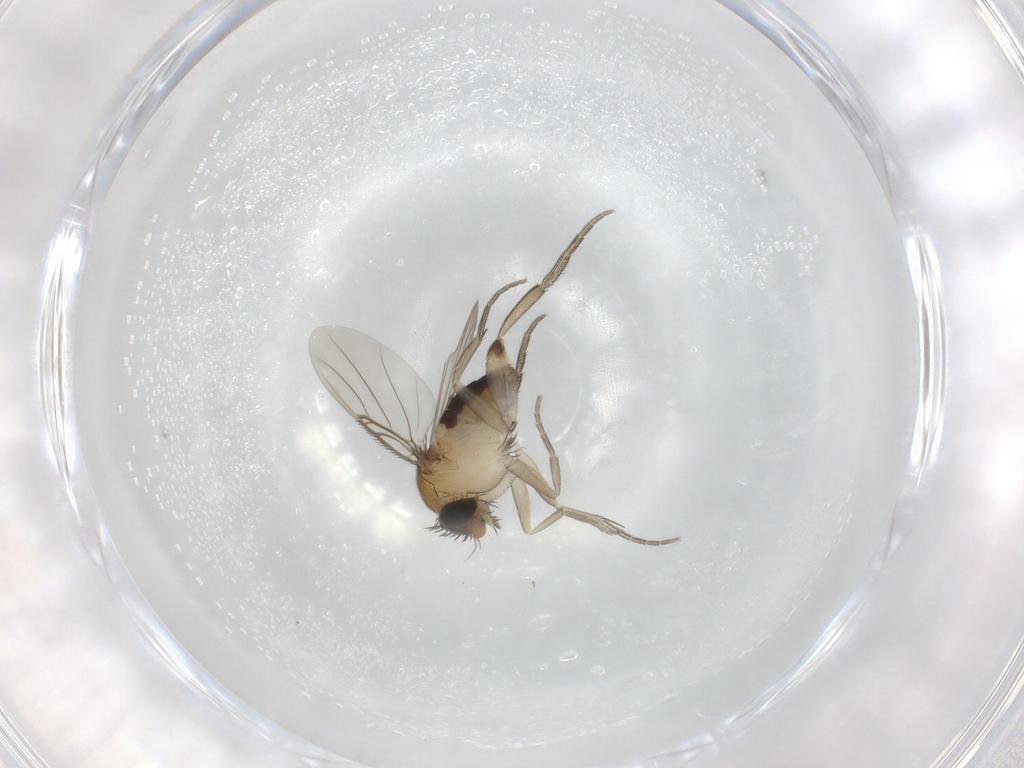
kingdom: Animalia
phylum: Arthropoda
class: Insecta
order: Diptera
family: Phoridae
